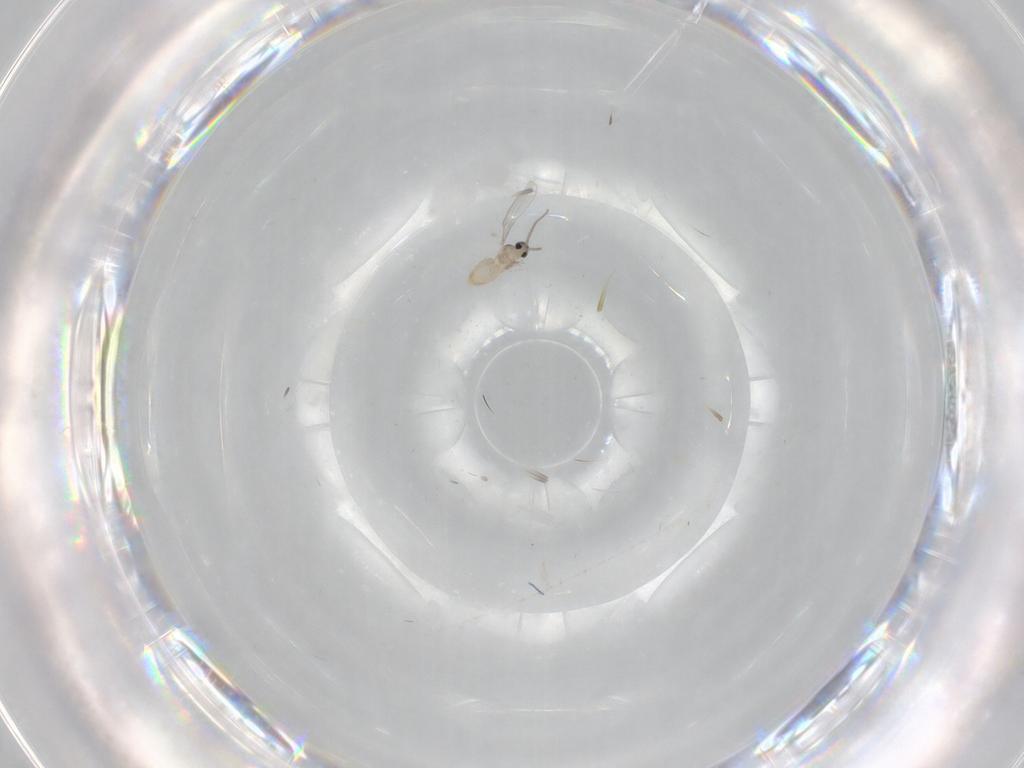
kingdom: Animalia
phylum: Arthropoda
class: Insecta
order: Diptera
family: Cecidomyiidae
